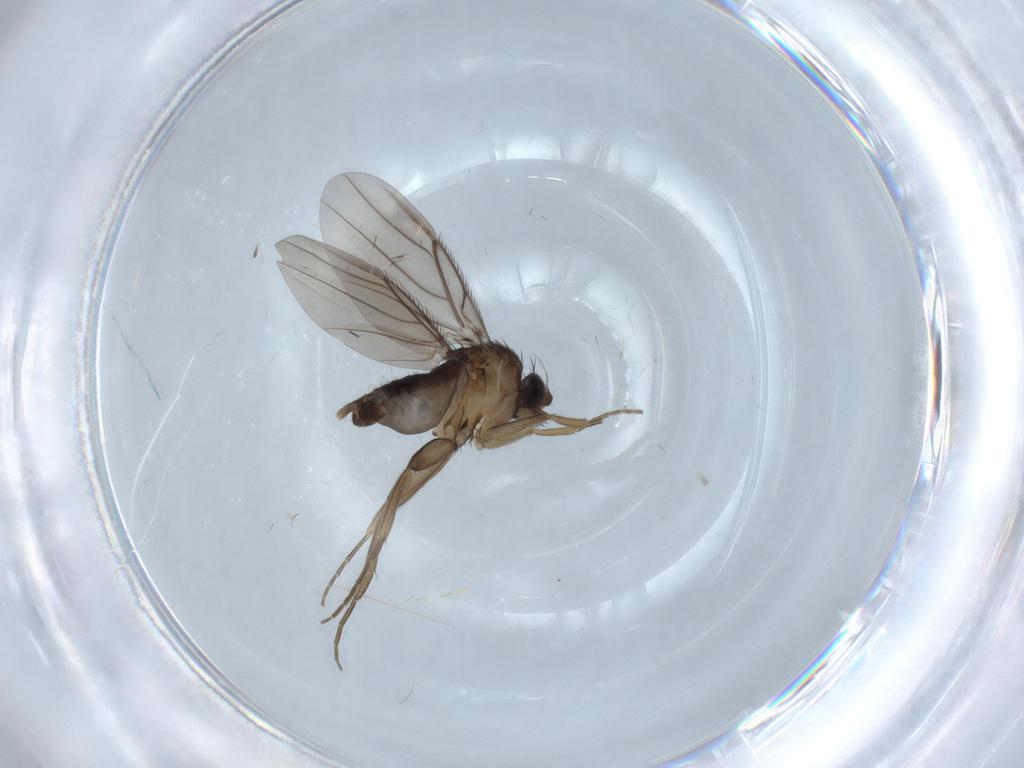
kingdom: Animalia
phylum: Arthropoda
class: Insecta
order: Diptera
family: Phoridae
